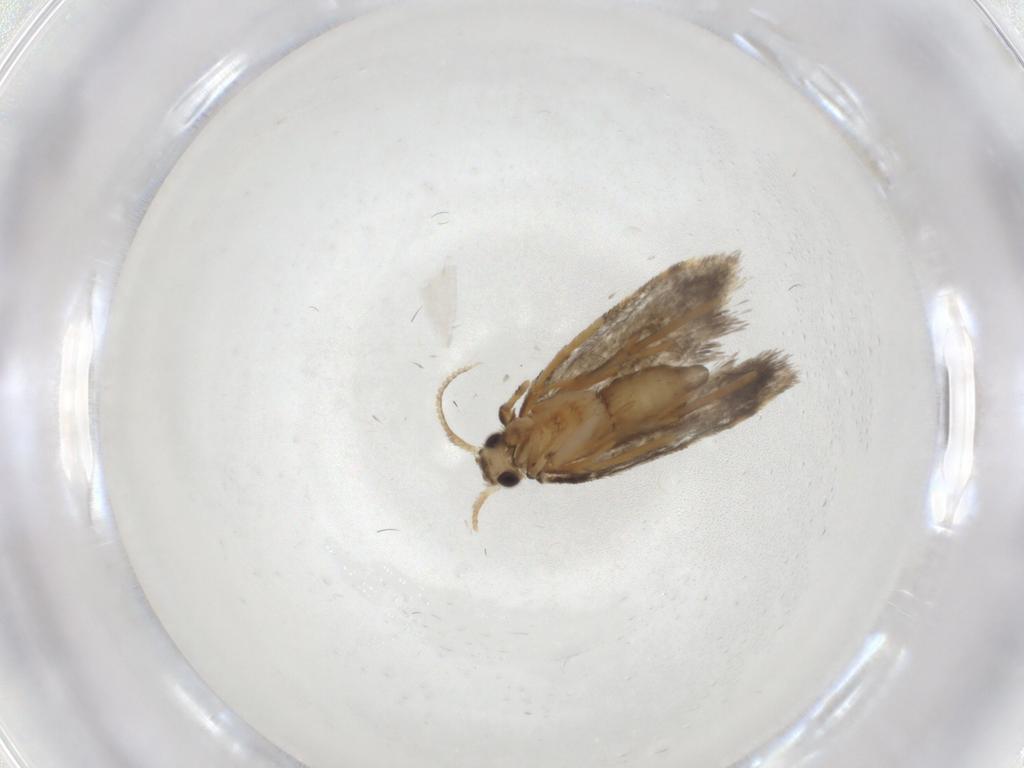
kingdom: Animalia
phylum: Arthropoda
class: Insecta
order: Lepidoptera
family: Psychidae
